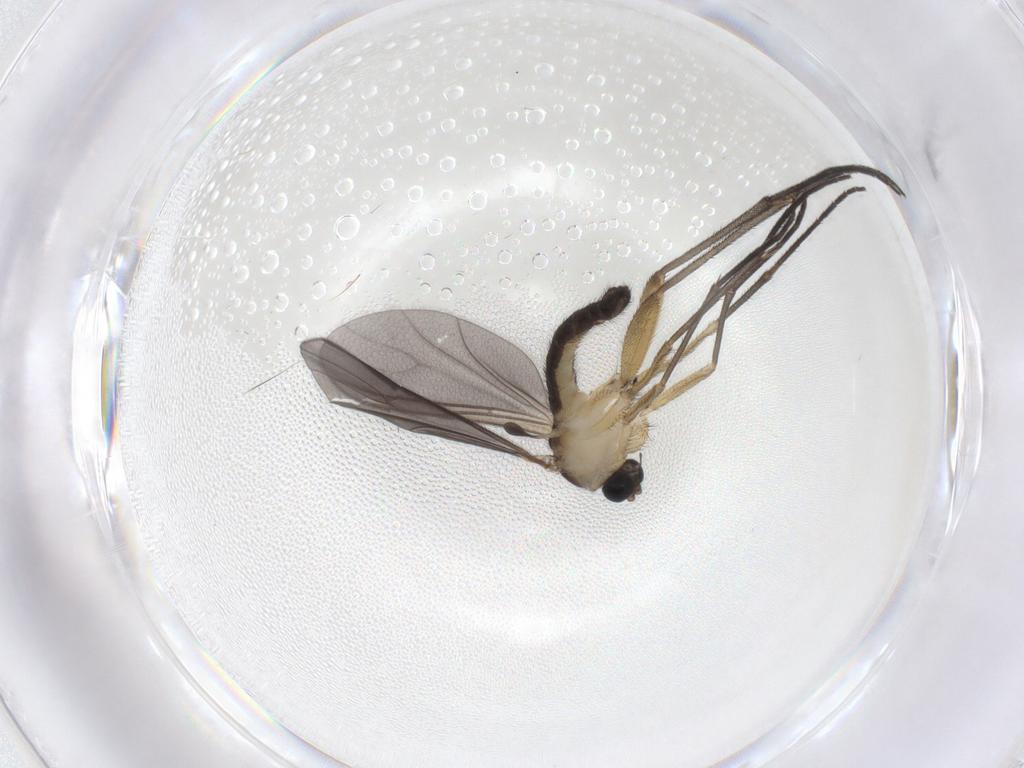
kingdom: Animalia
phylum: Arthropoda
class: Insecta
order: Diptera
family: Sciaridae
